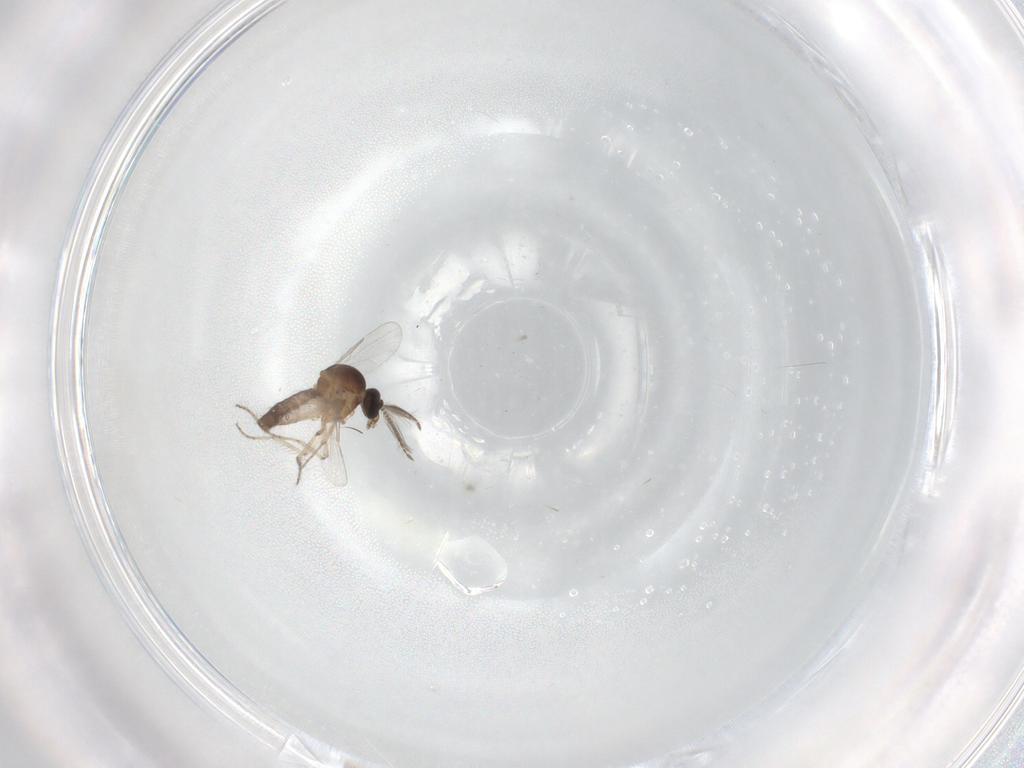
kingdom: Animalia
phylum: Arthropoda
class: Insecta
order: Diptera
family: Ceratopogonidae
